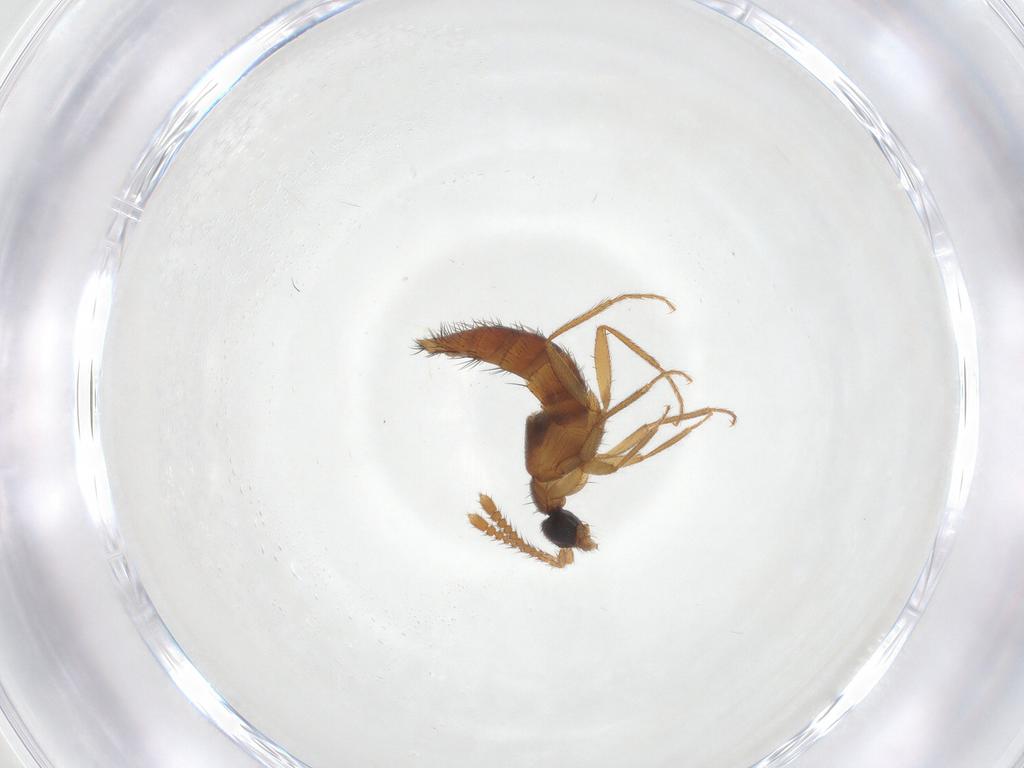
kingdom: Animalia
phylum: Arthropoda
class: Insecta
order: Coleoptera
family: Staphylinidae
